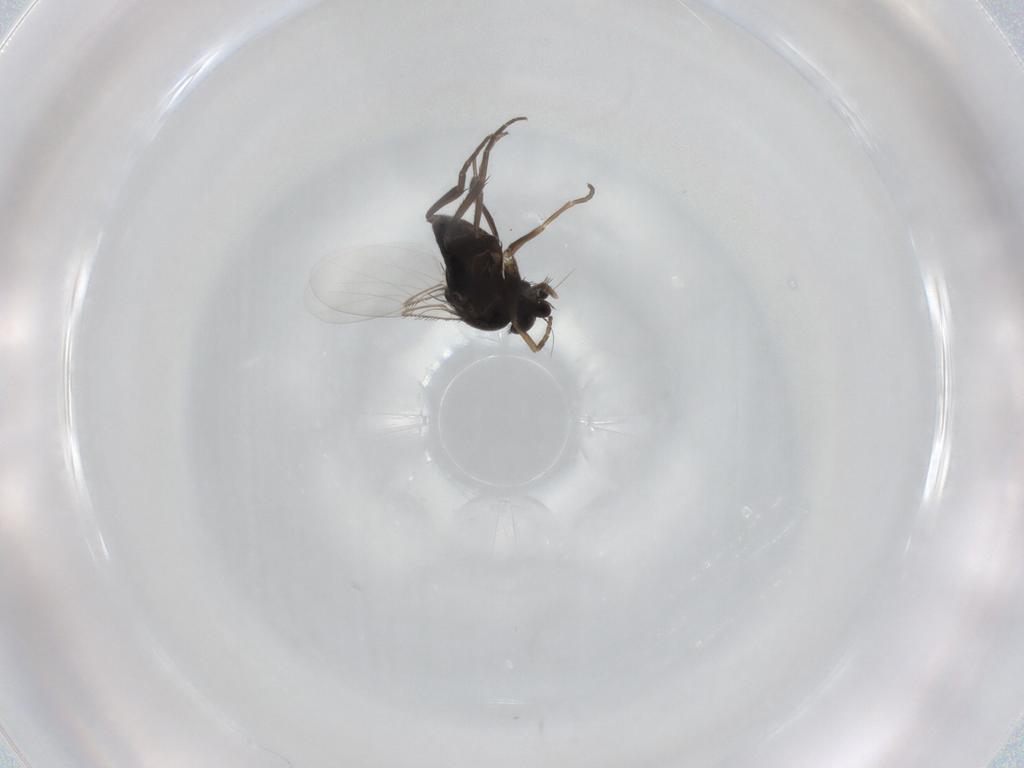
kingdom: Animalia
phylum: Arthropoda
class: Insecta
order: Diptera
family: Phoridae
